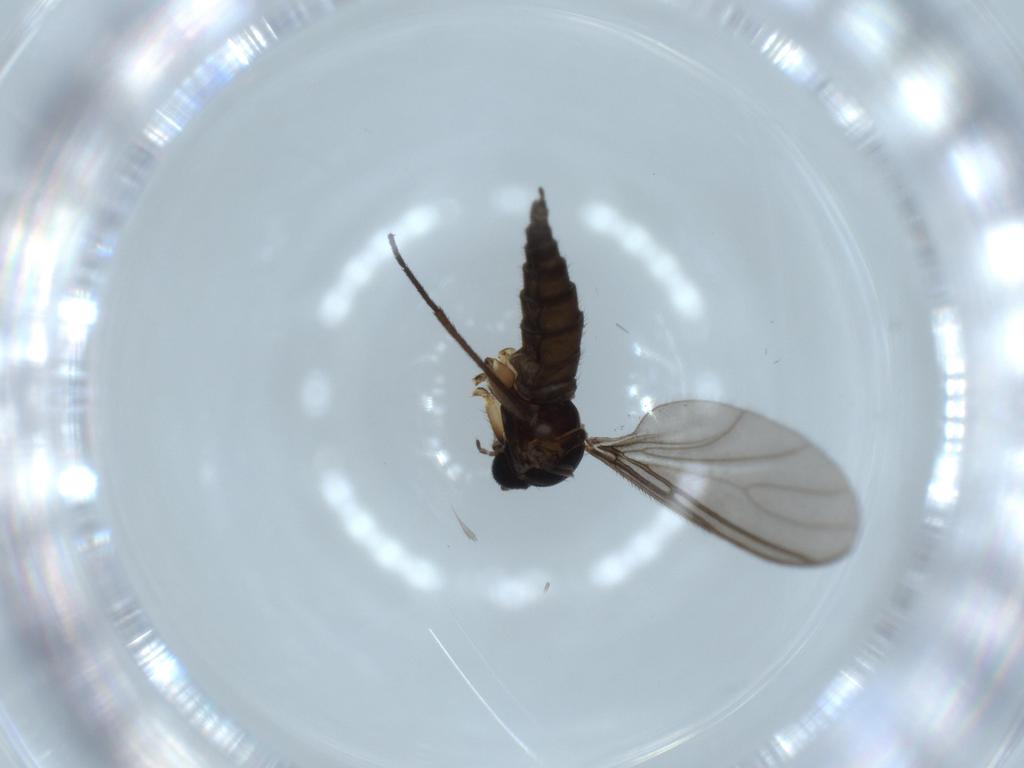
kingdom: Animalia
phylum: Arthropoda
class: Insecta
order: Diptera
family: Sciaridae
